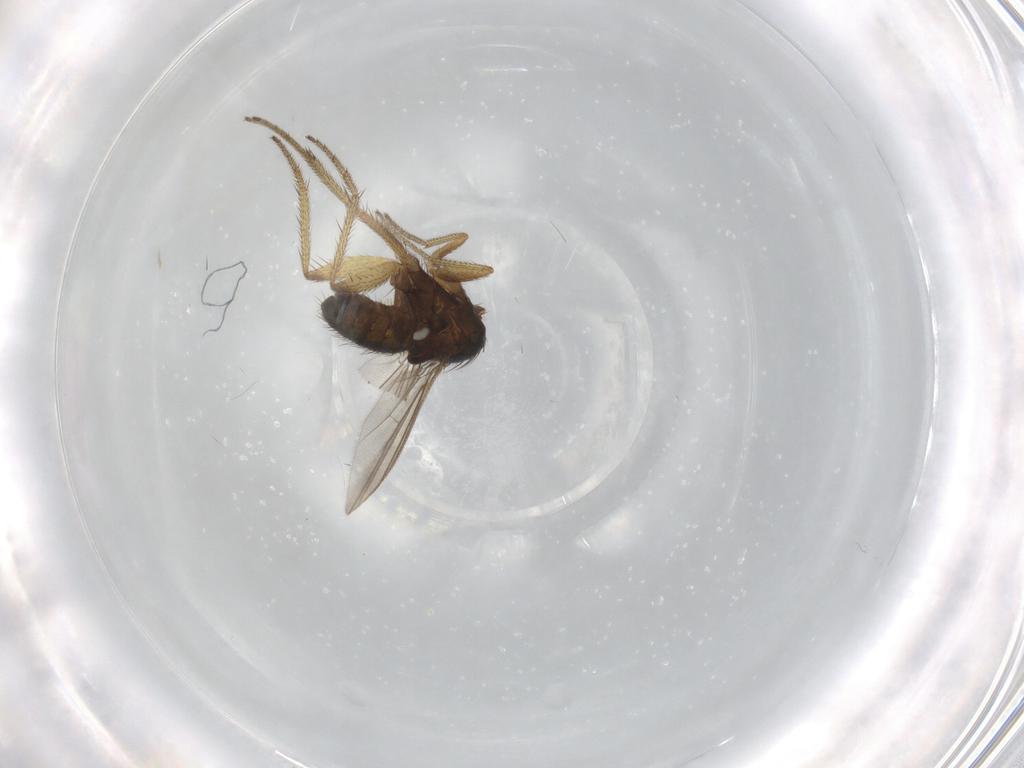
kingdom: Animalia
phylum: Arthropoda
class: Insecta
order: Diptera
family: Dolichopodidae
